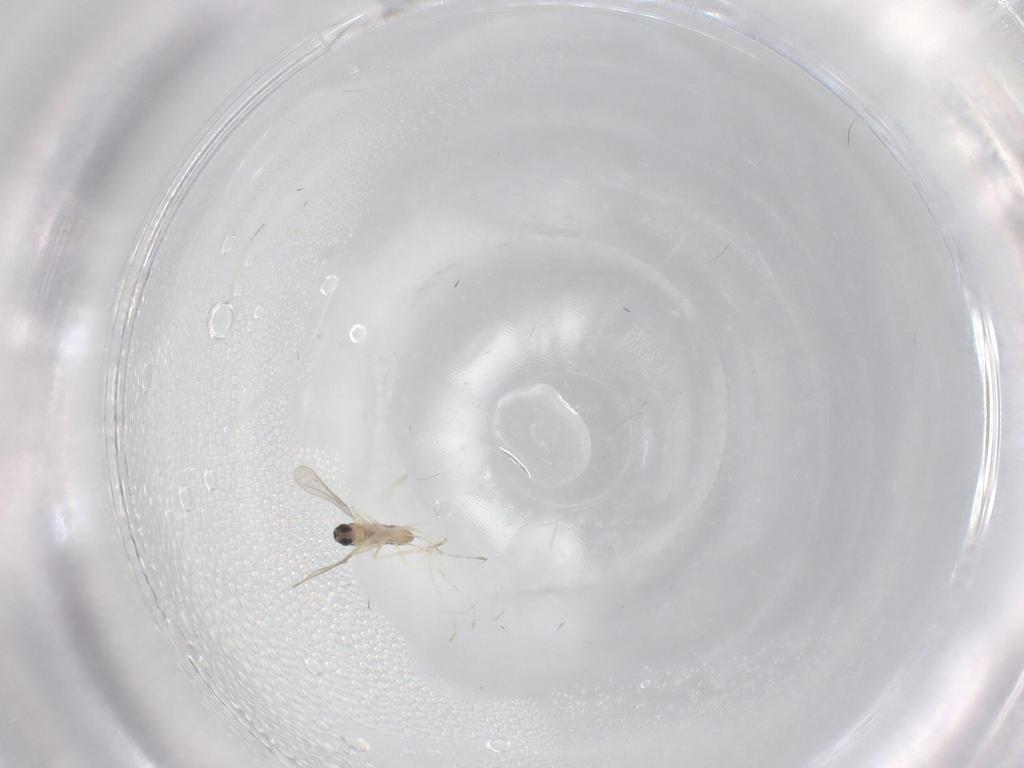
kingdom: Animalia
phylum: Arthropoda
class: Insecta
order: Diptera
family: Cecidomyiidae
